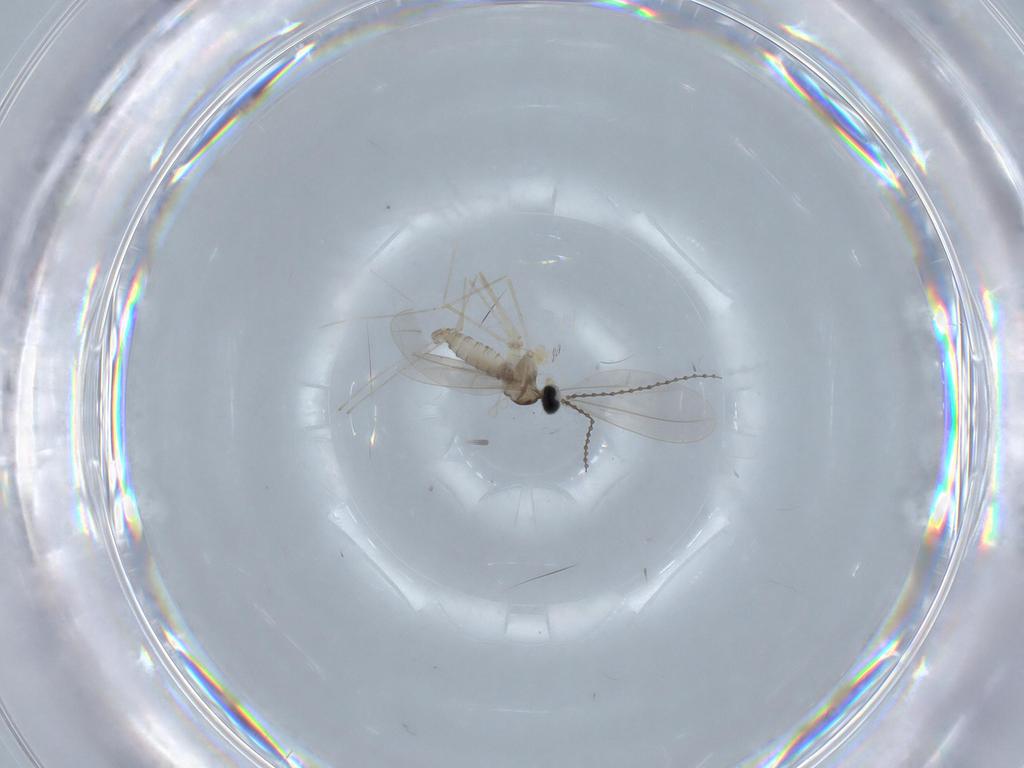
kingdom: Animalia
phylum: Arthropoda
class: Insecta
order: Diptera
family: Cecidomyiidae
